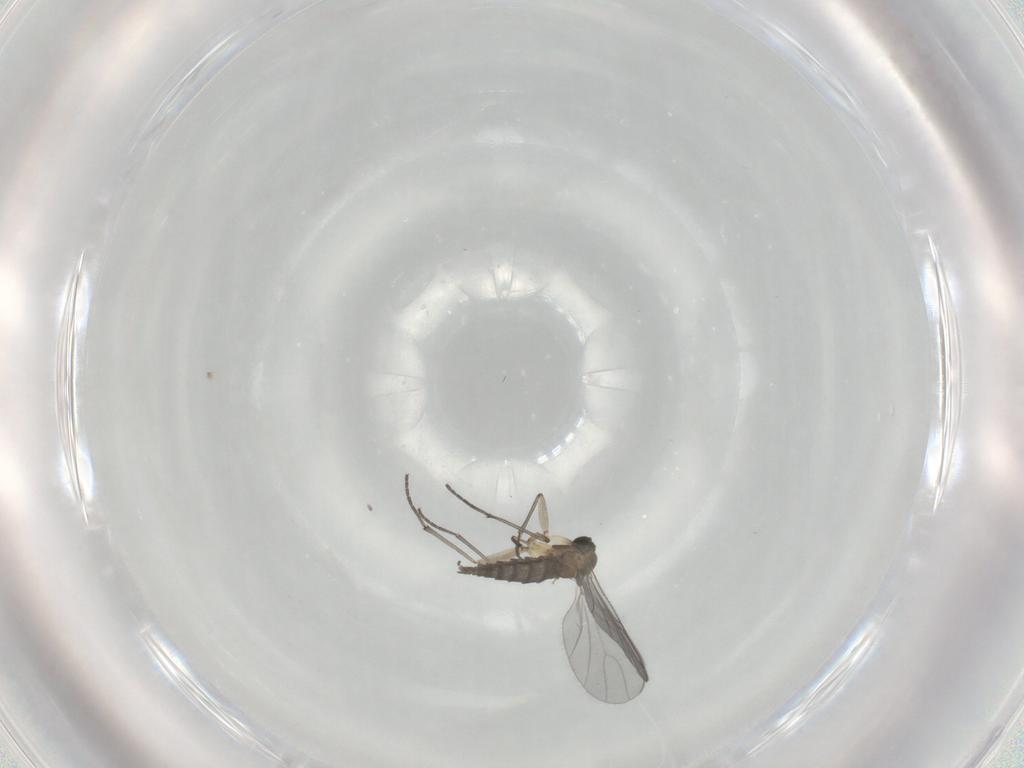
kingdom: Animalia
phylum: Arthropoda
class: Insecta
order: Diptera
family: Sciaridae
